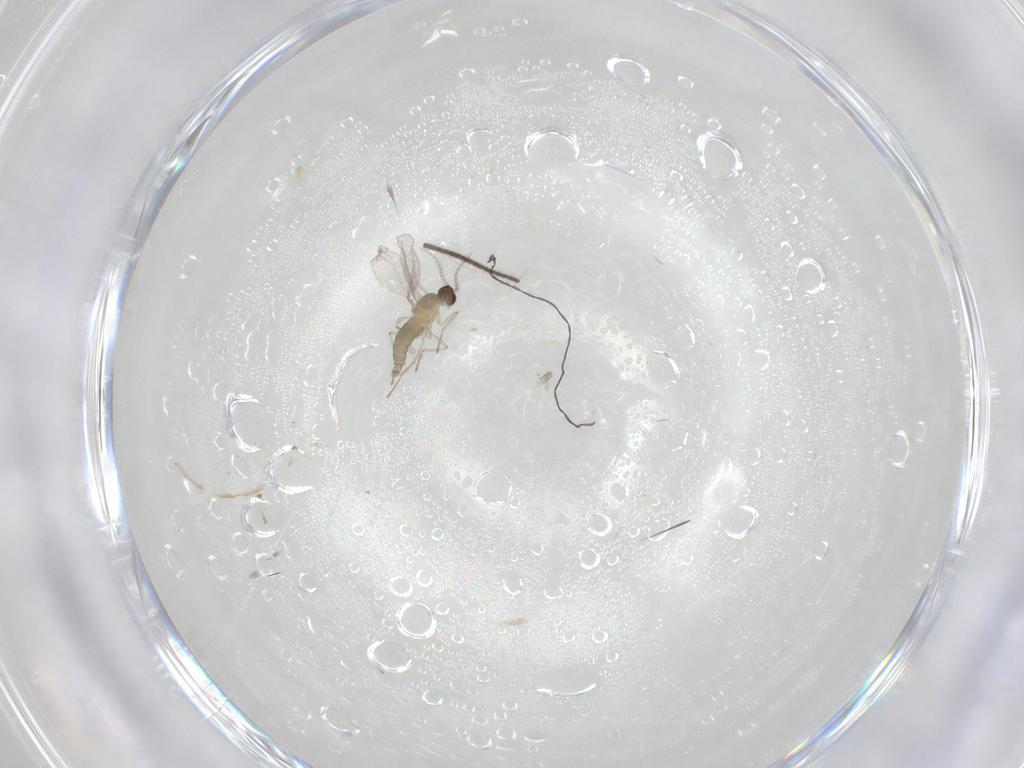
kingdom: Animalia
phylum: Arthropoda
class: Insecta
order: Diptera
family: Cecidomyiidae
